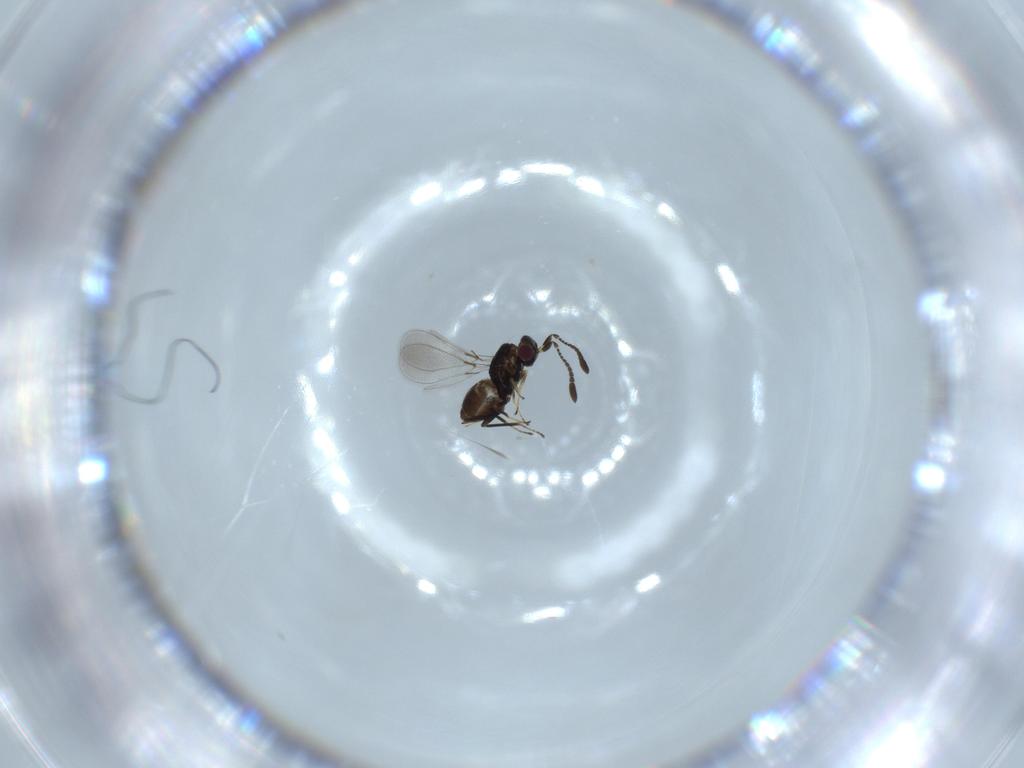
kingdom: Animalia
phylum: Arthropoda
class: Insecta
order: Hymenoptera
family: Mymaridae
